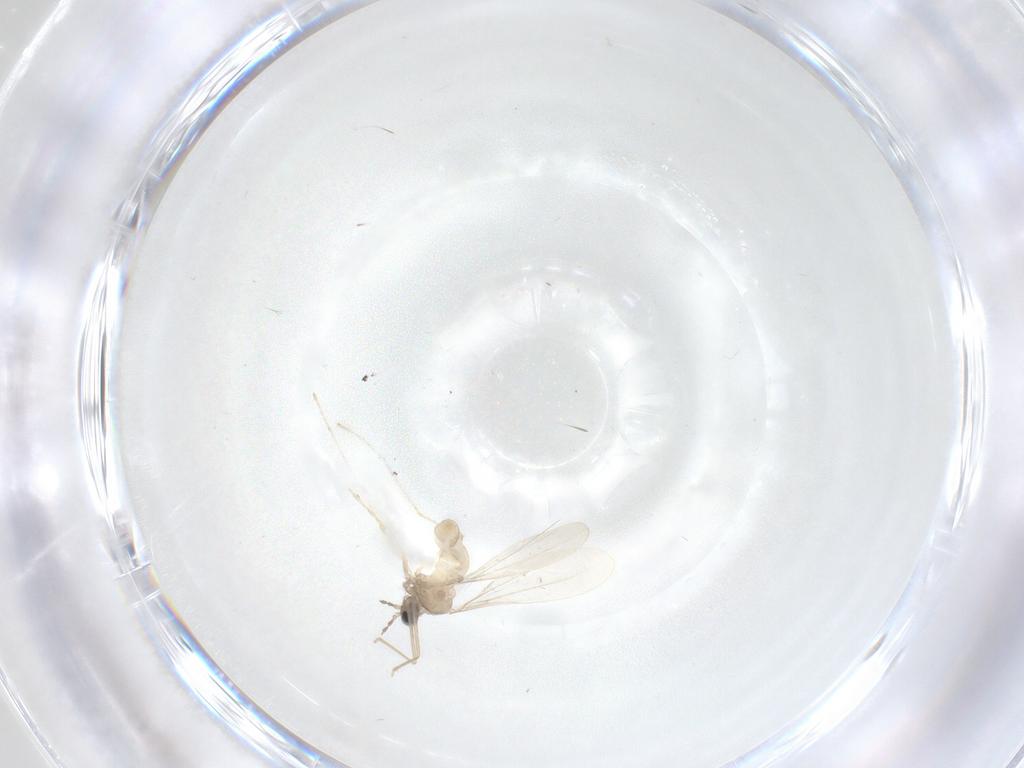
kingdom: Animalia
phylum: Arthropoda
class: Insecta
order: Diptera
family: Cecidomyiidae
